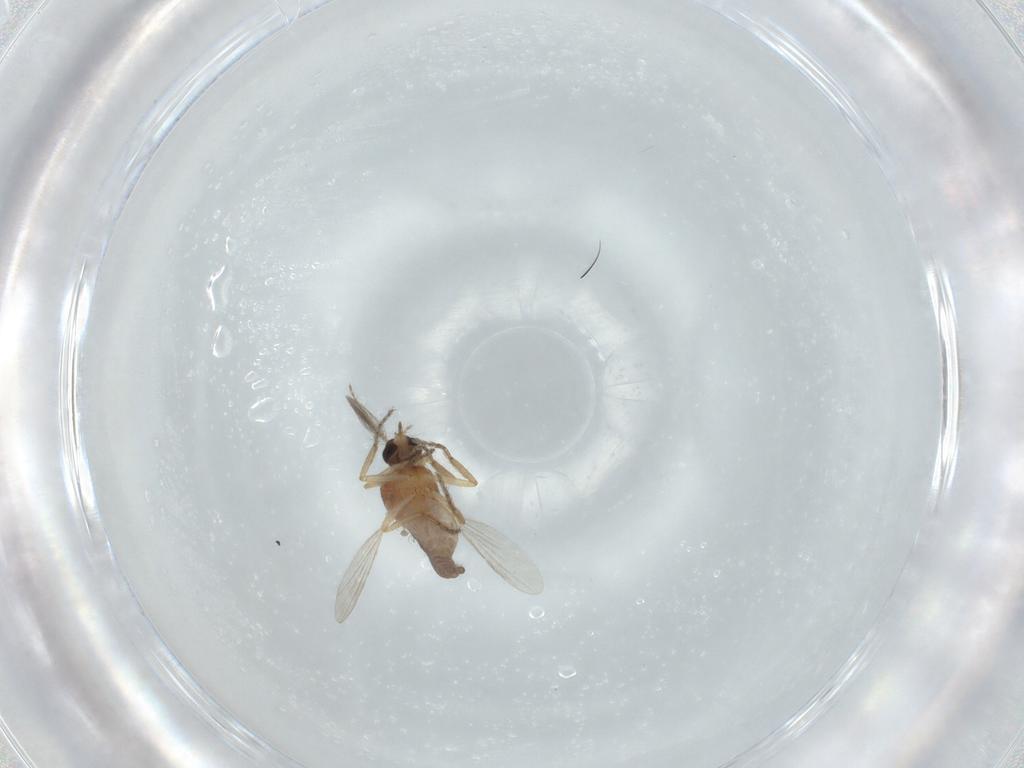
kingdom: Animalia
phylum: Arthropoda
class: Insecta
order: Diptera
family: Ceratopogonidae
